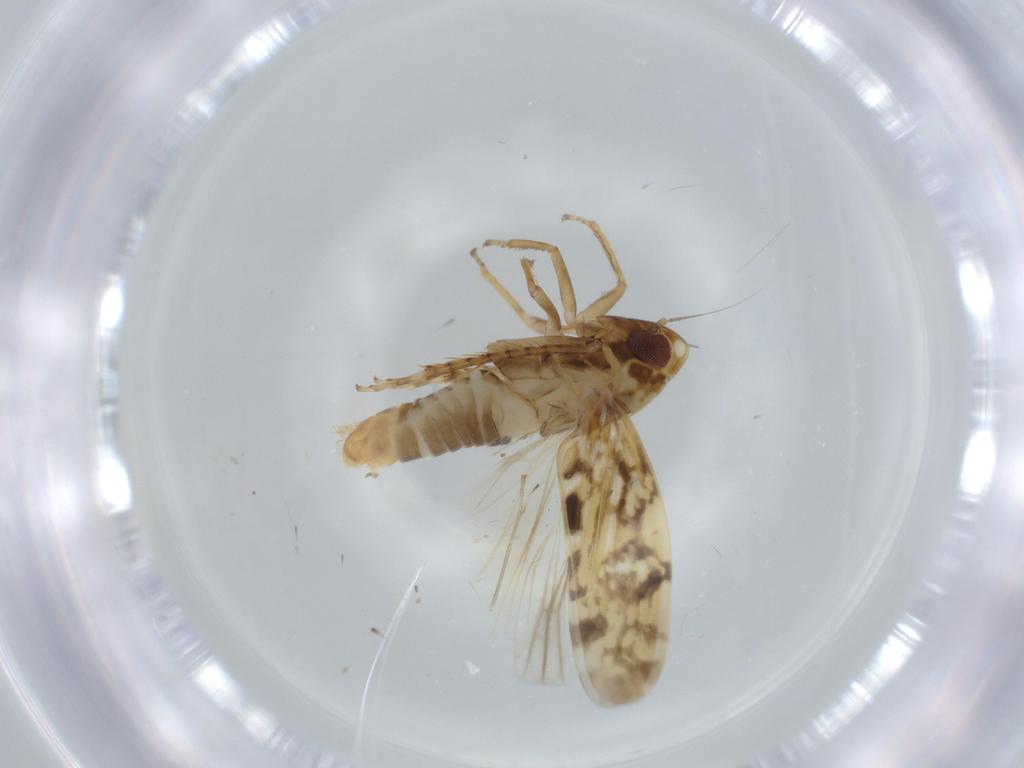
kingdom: Animalia
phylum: Arthropoda
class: Insecta
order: Hemiptera
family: Cicadellidae
